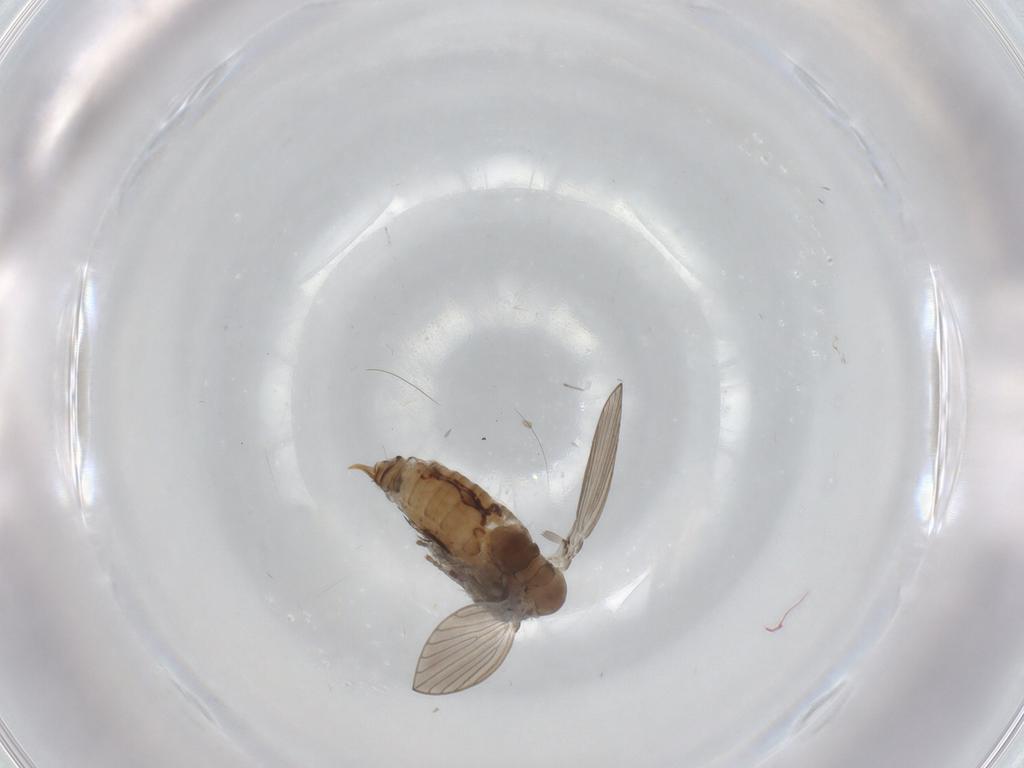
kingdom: Animalia
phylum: Arthropoda
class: Insecta
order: Diptera
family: Psychodidae
